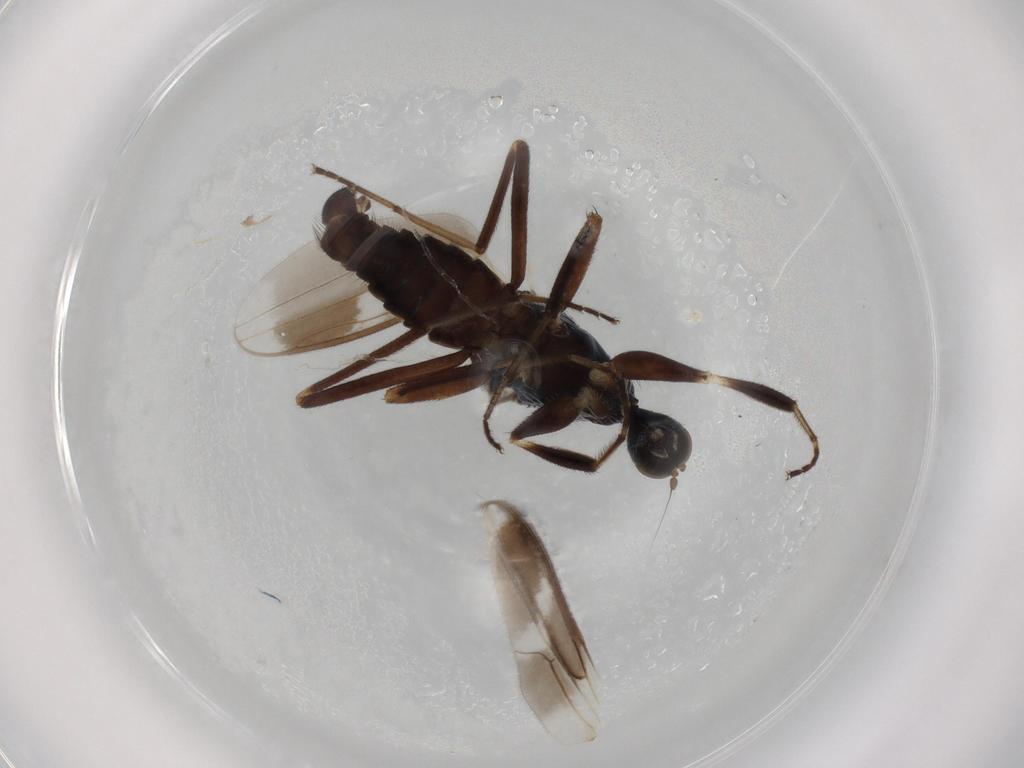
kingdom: Animalia
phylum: Arthropoda
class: Insecta
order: Diptera
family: Hybotidae
